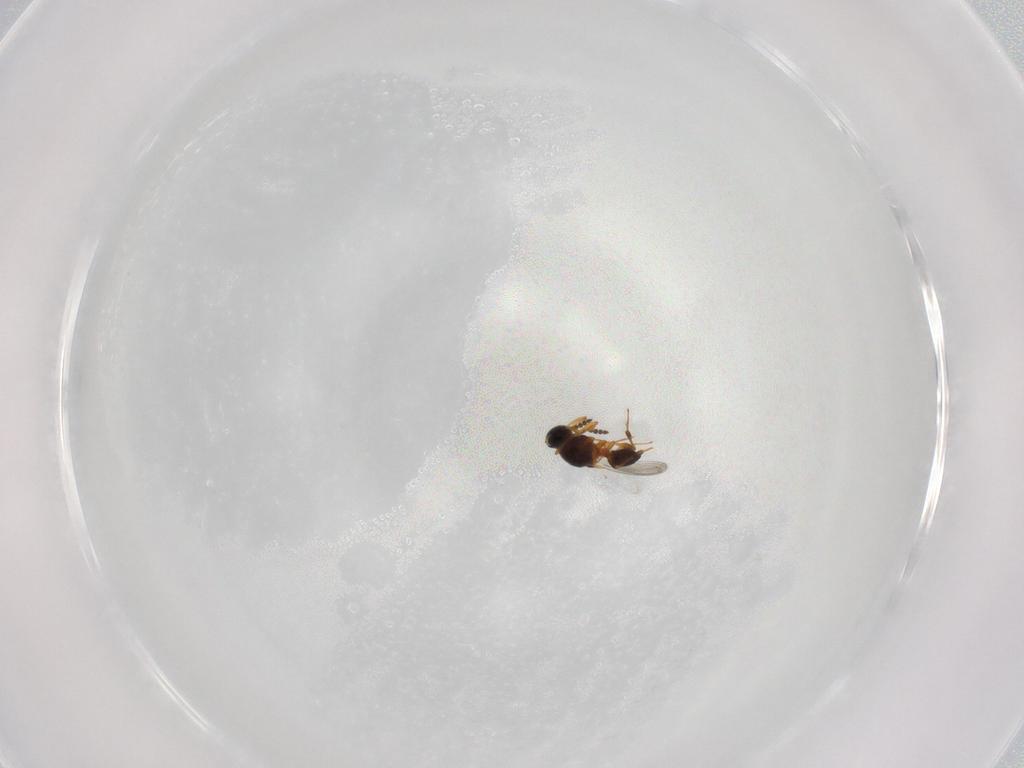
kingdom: Animalia
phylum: Arthropoda
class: Insecta
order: Hymenoptera
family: Platygastridae
